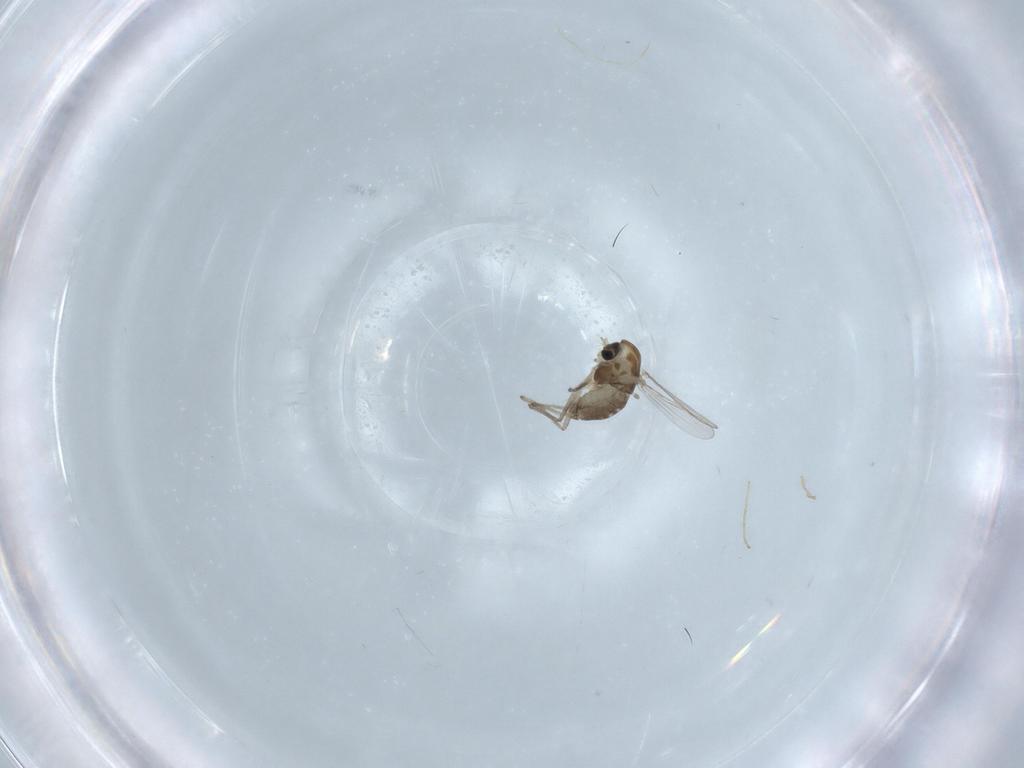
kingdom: Animalia
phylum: Arthropoda
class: Insecta
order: Diptera
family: Chironomidae
